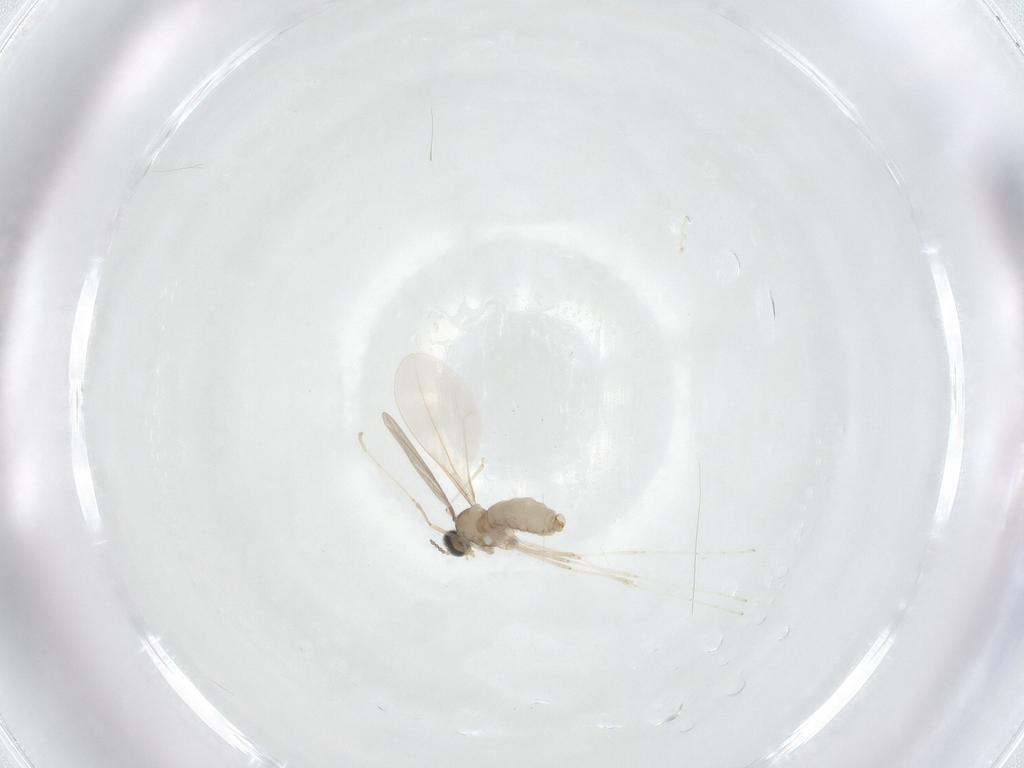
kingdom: Animalia
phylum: Arthropoda
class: Insecta
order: Diptera
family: Cecidomyiidae
